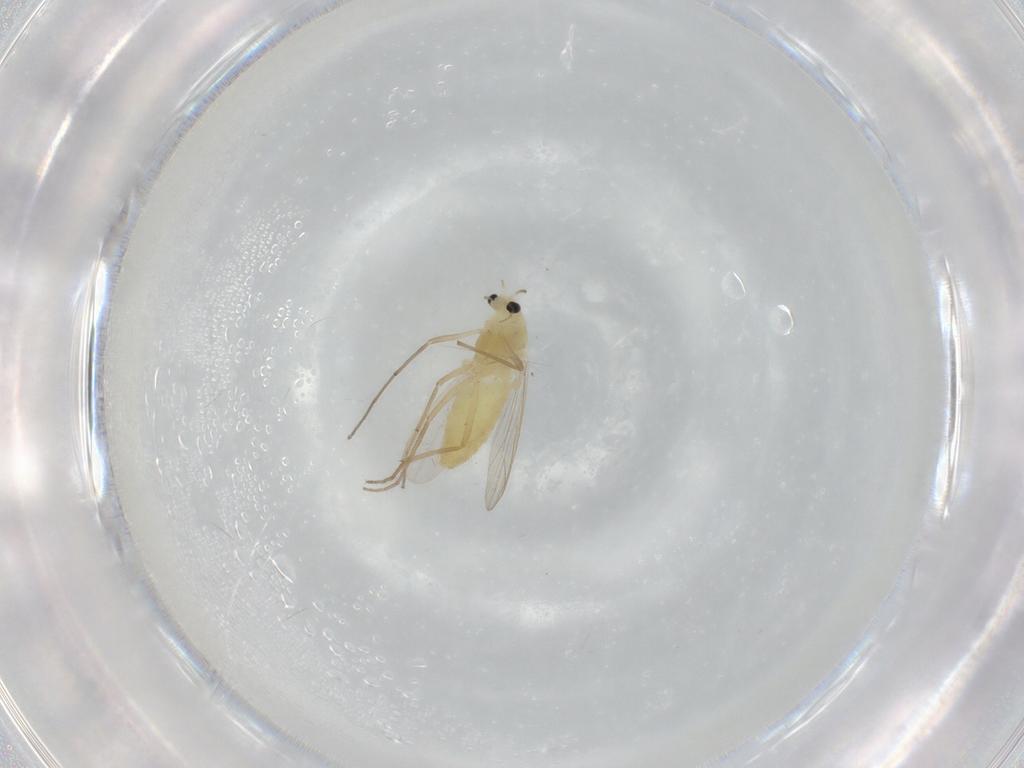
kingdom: Animalia
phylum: Arthropoda
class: Insecta
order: Diptera
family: Chironomidae
